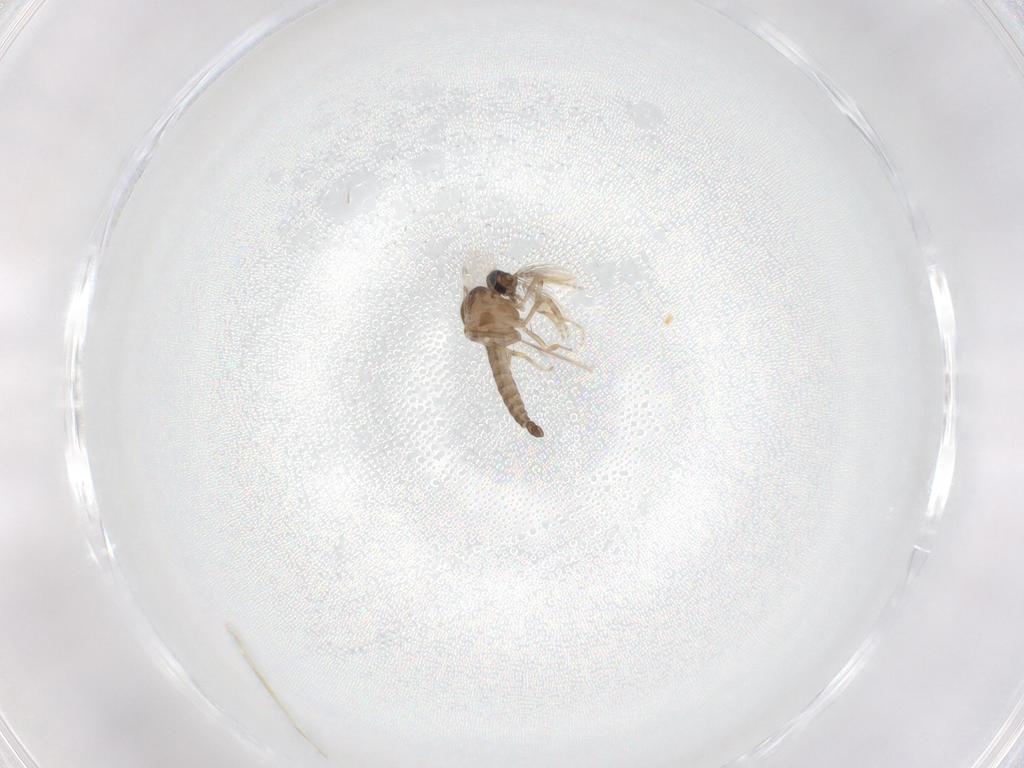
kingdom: Animalia
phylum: Arthropoda
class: Insecta
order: Diptera
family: Ceratopogonidae
